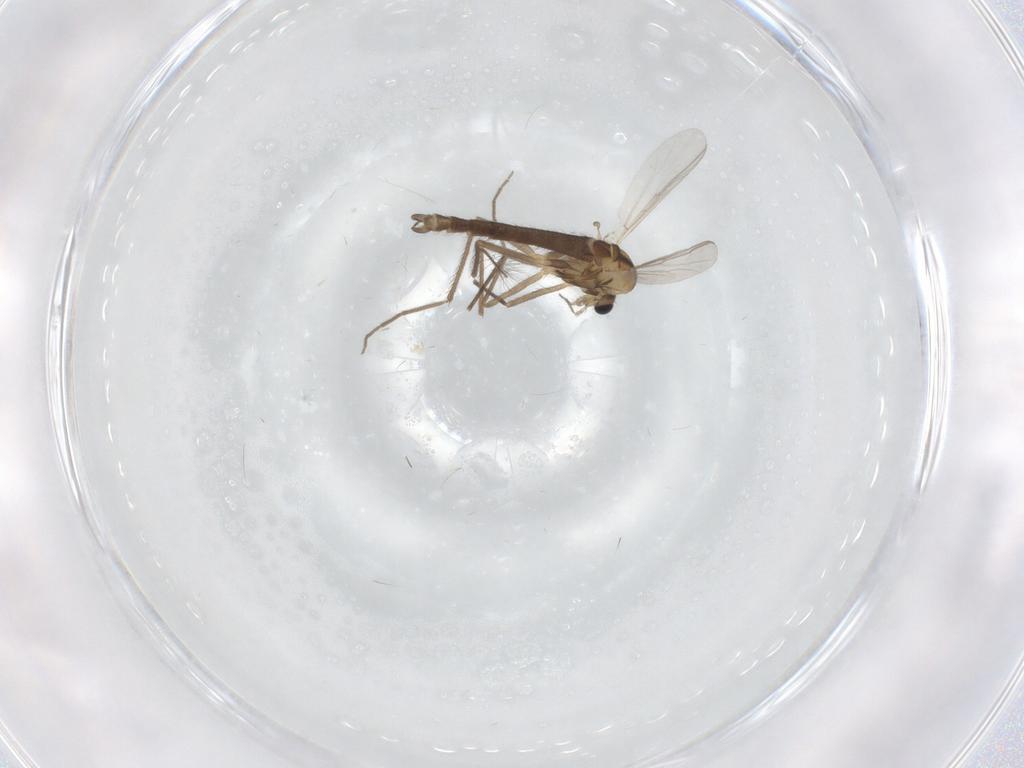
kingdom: Animalia
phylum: Arthropoda
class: Insecta
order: Diptera
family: Chironomidae
